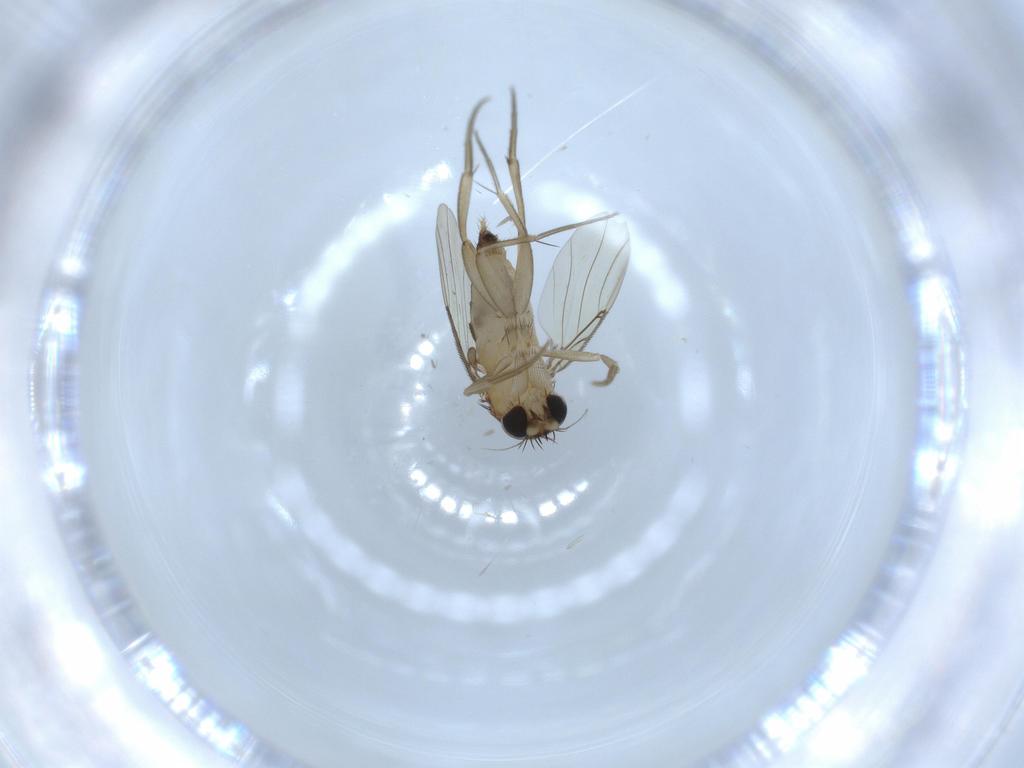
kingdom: Animalia
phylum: Arthropoda
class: Insecta
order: Diptera
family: Phoridae
